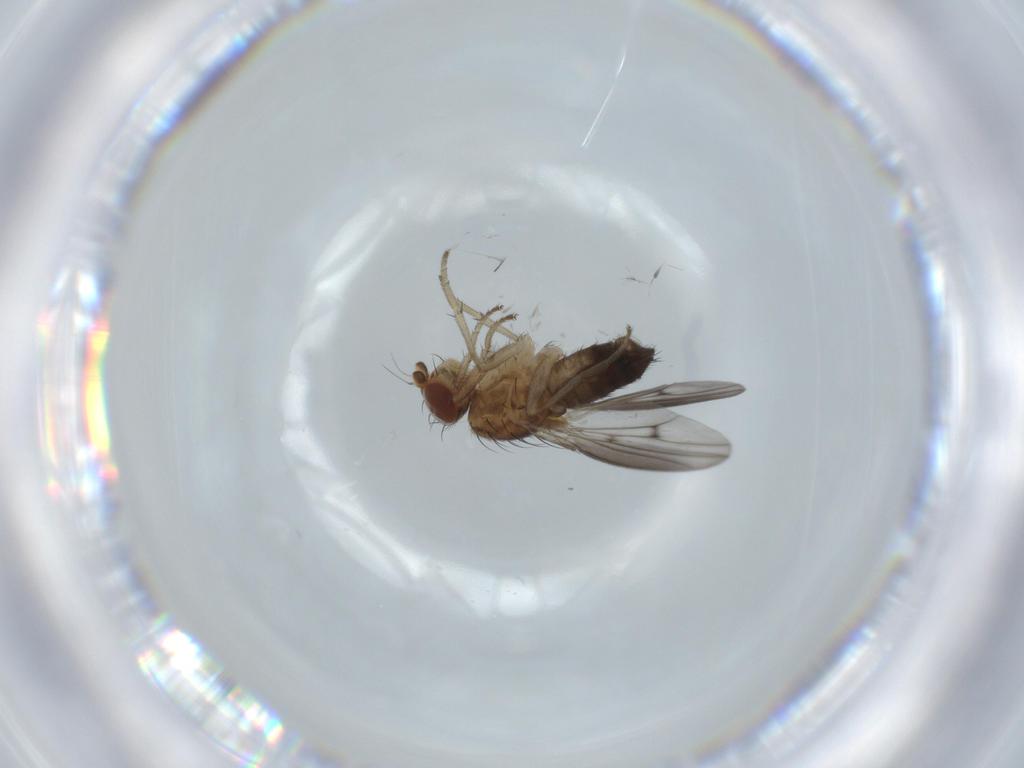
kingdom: Animalia
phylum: Arthropoda
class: Insecta
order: Diptera
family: Heleomyzidae
